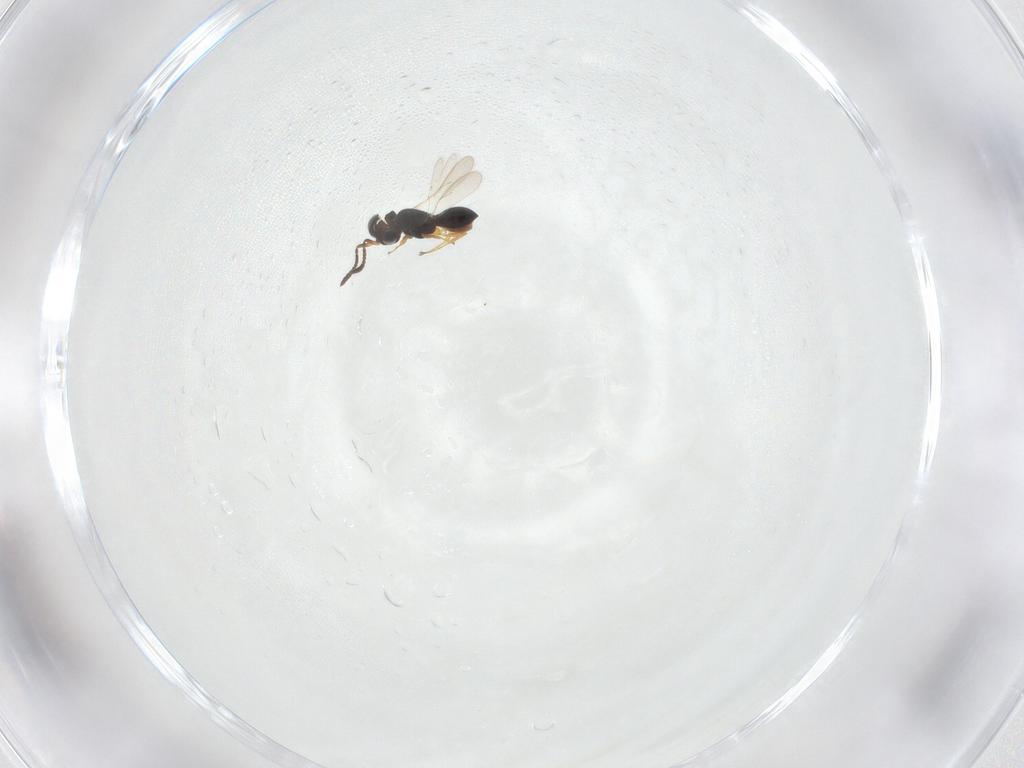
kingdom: Animalia
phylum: Arthropoda
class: Insecta
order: Hymenoptera
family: Scelionidae
